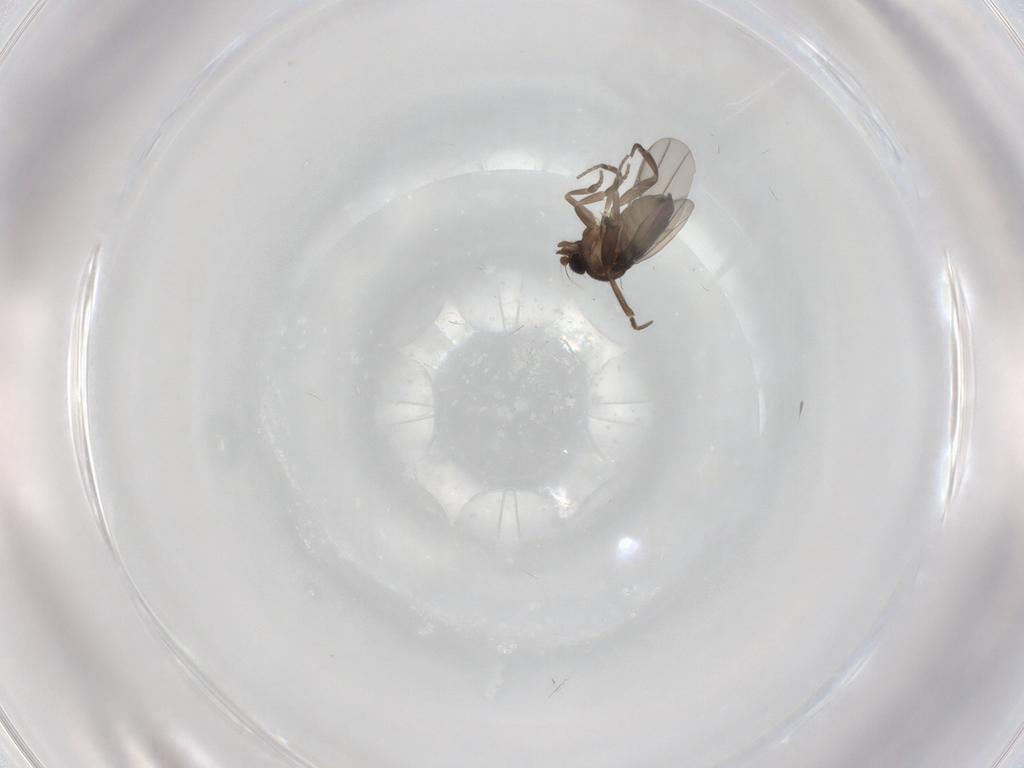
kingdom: Animalia
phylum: Arthropoda
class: Insecta
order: Diptera
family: Phoridae
